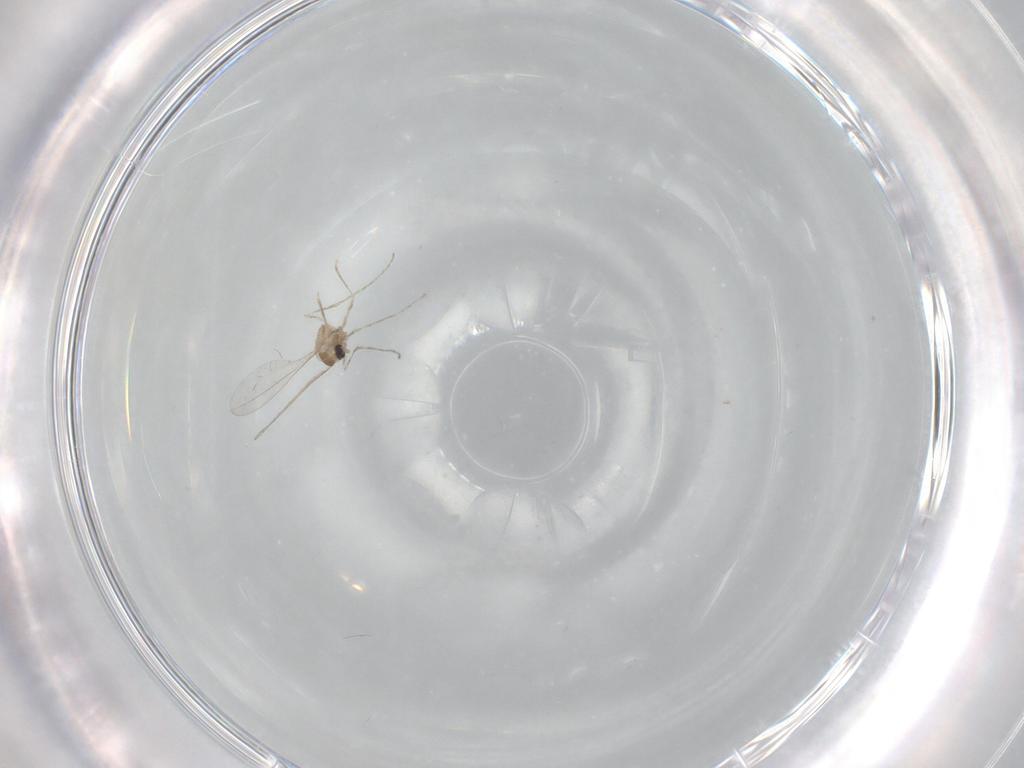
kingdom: Animalia
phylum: Arthropoda
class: Insecta
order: Diptera
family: Cecidomyiidae
